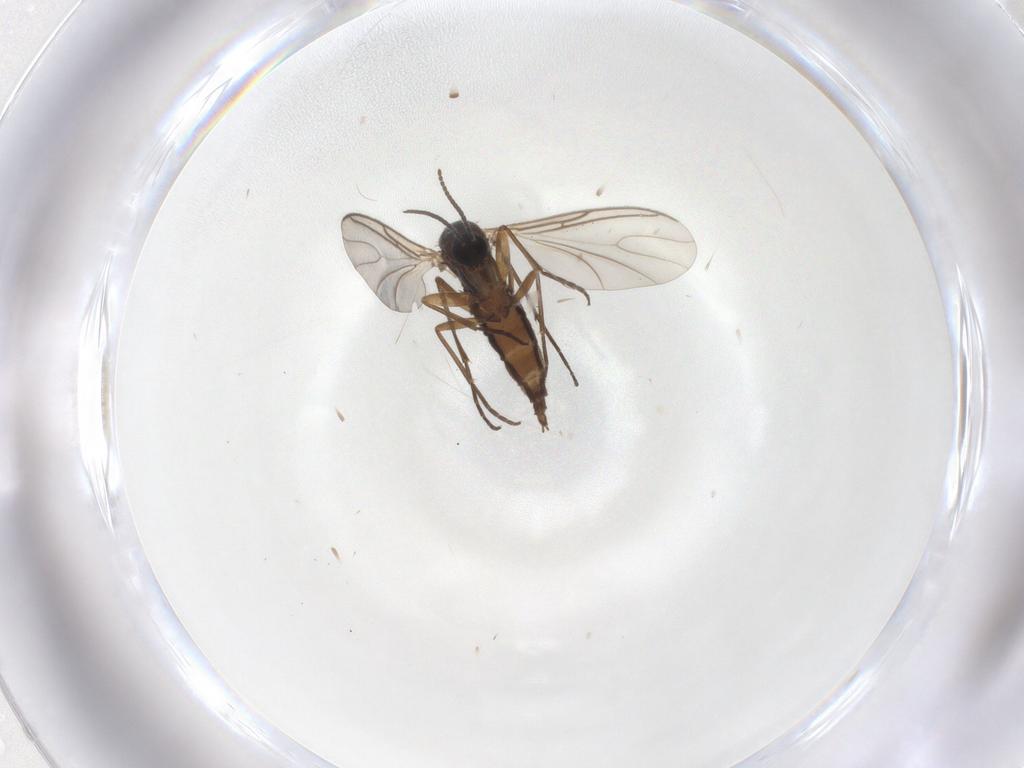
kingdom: Animalia
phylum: Arthropoda
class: Insecta
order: Diptera
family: Sciaridae
